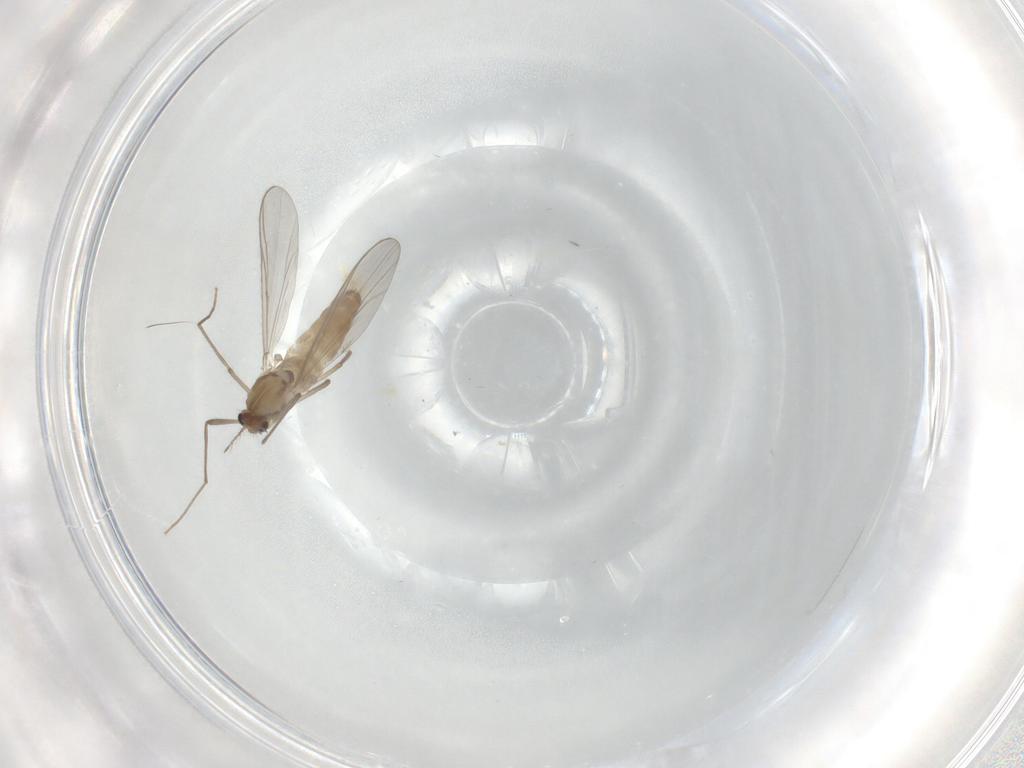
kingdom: Animalia
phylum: Arthropoda
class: Insecta
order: Diptera
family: Chironomidae
